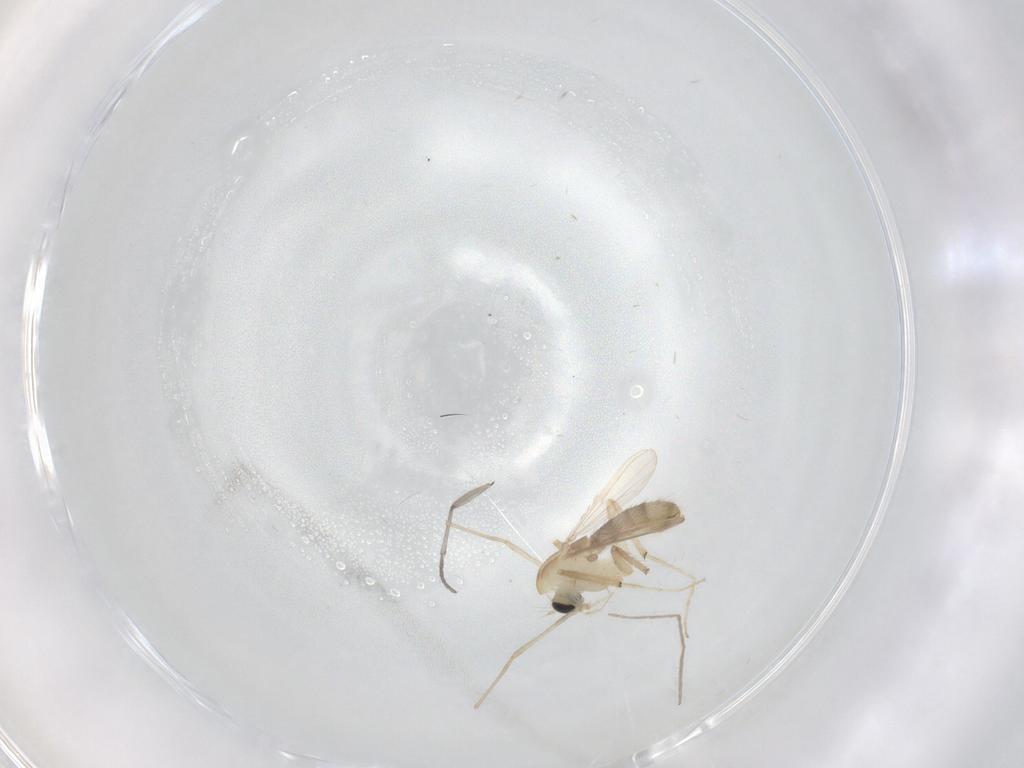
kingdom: Animalia
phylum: Arthropoda
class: Insecta
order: Diptera
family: Chironomidae
